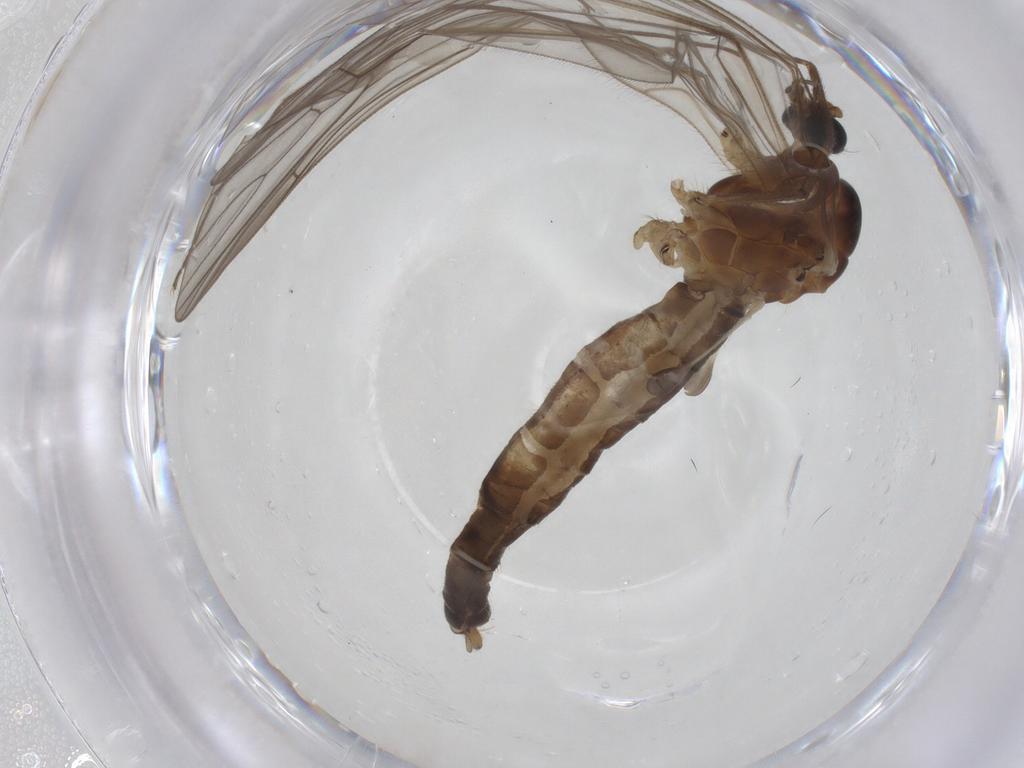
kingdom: Animalia
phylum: Arthropoda
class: Insecta
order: Diptera
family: Trichoceridae
